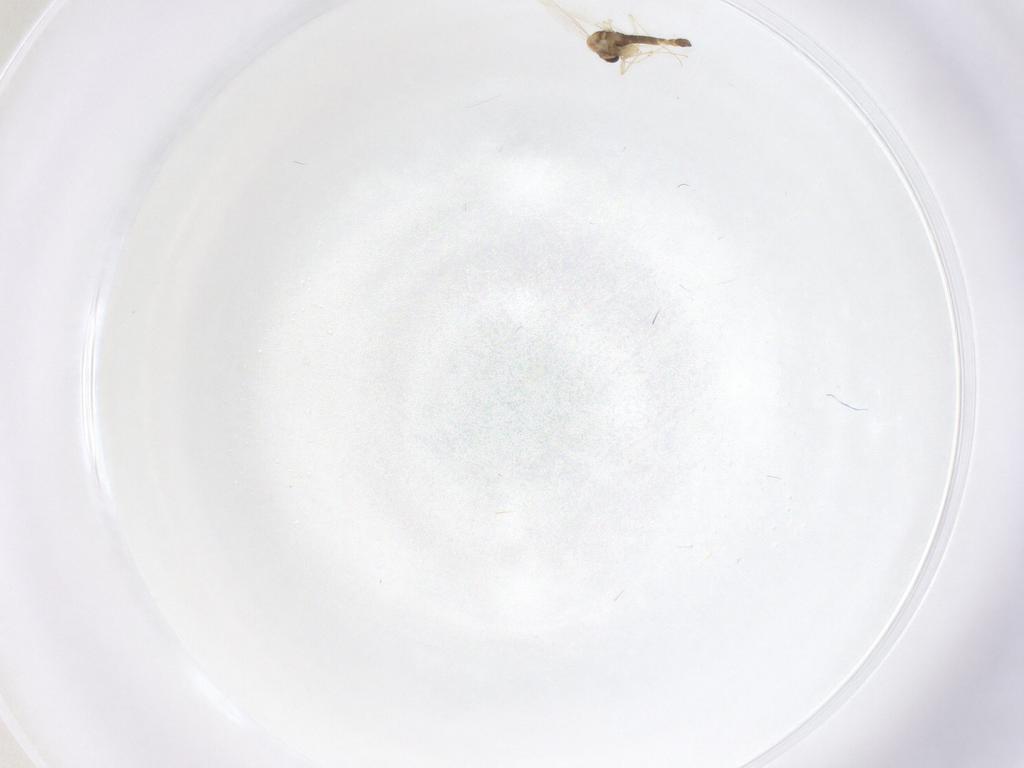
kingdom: Animalia
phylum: Arthropoda
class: Insecta
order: Diptera
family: Chironomidae
